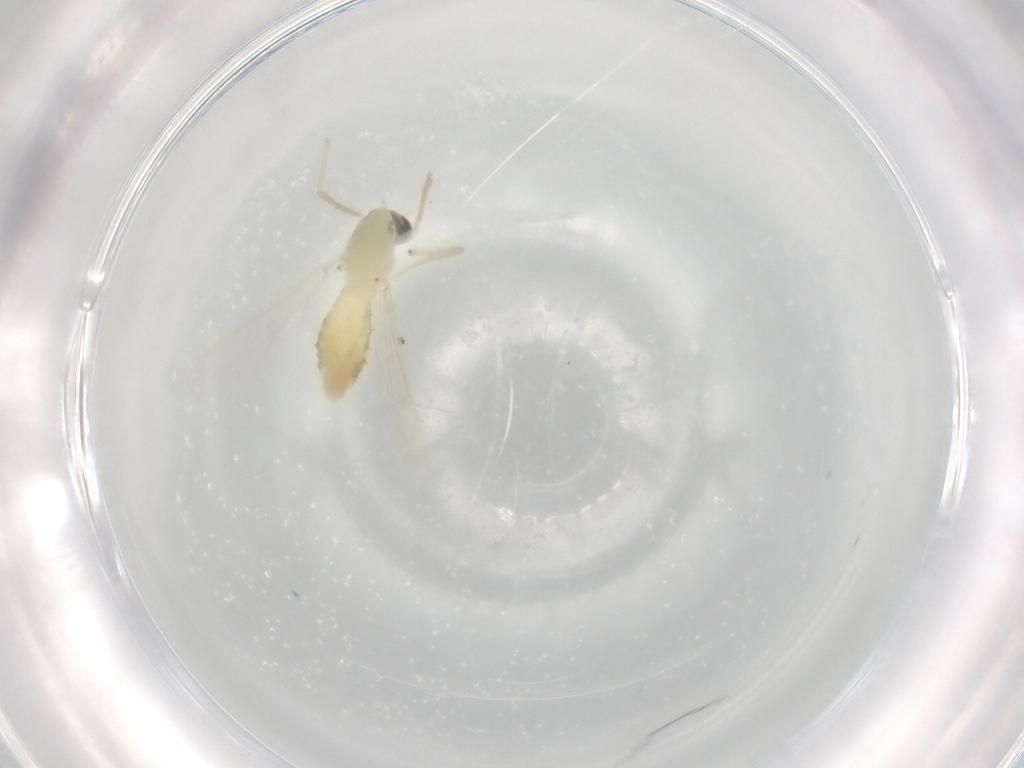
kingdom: Animalia
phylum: Arthropoda
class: Insecta
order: Diptera
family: Chironomidae
